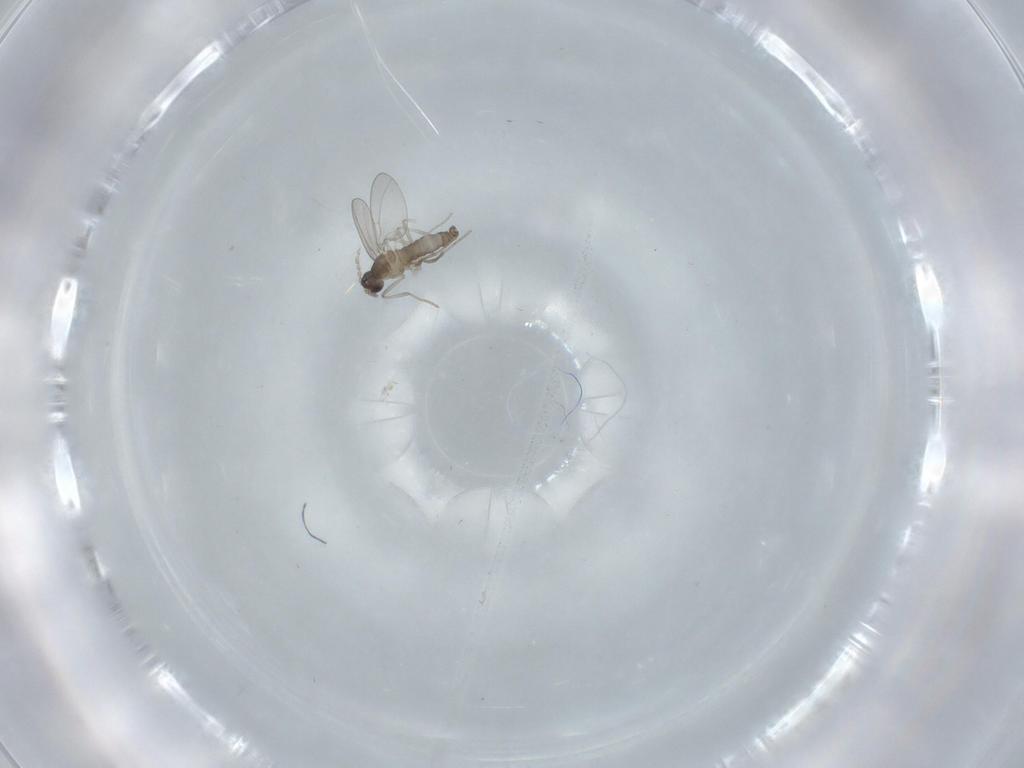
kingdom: Animalia
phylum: Arthropoda
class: Insecta
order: Diptera
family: Cecidomyiidae
